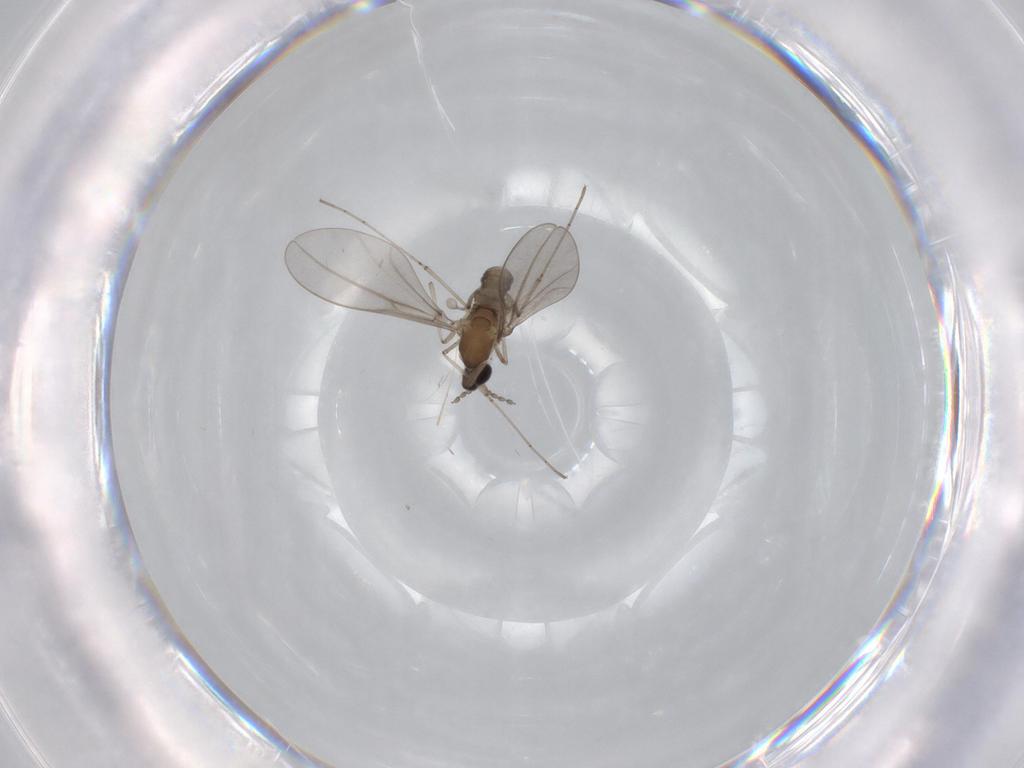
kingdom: Animalia
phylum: Arthropoda
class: Insecta
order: Diptera
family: Cecidomyiidae
